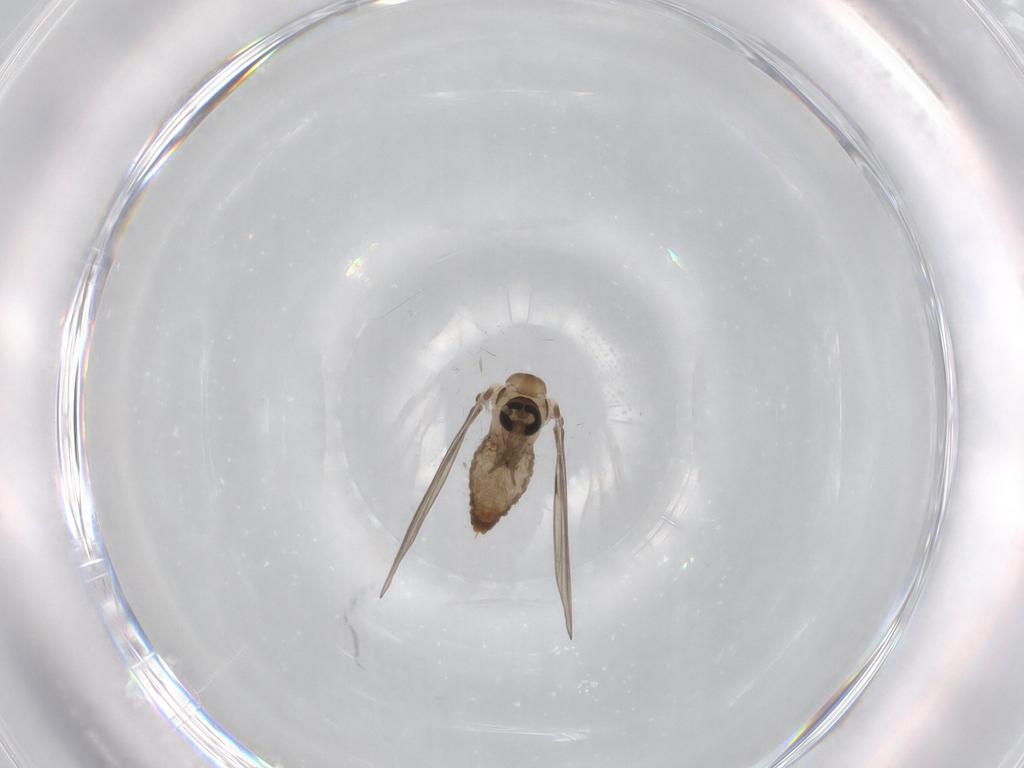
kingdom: Animalia
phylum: Arthropoda
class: Insecta
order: Diptera
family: Psychodidae
